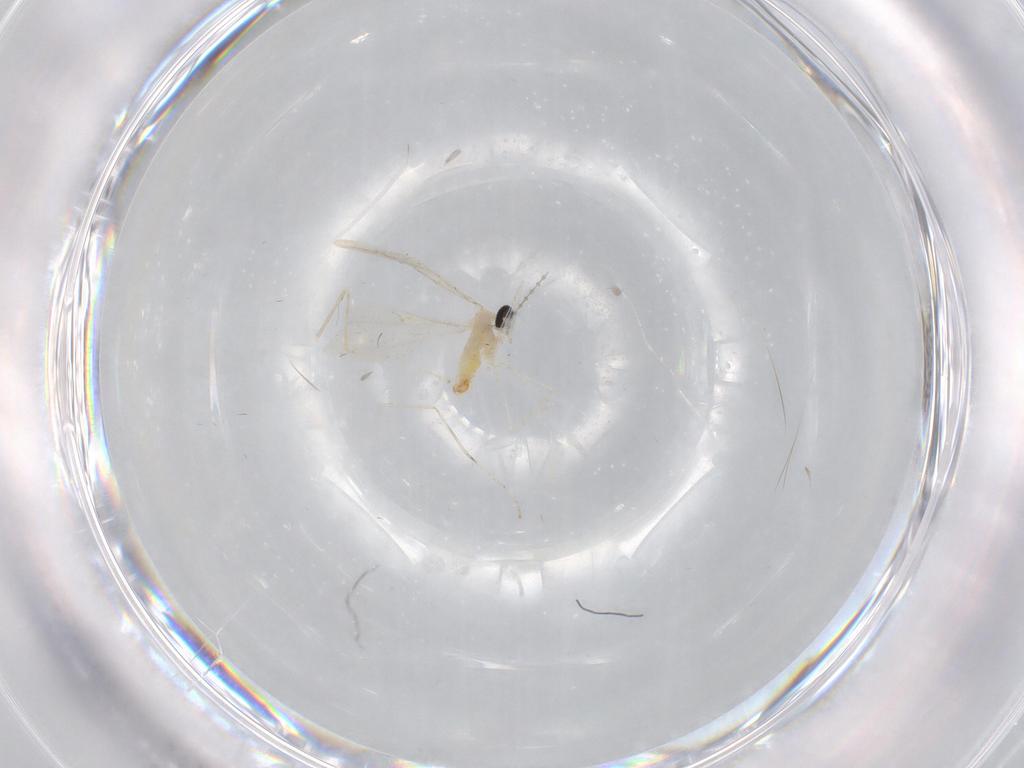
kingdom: Animalia
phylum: Arthropoda
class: Insecta
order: Diptera
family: Cecidomyiidae
